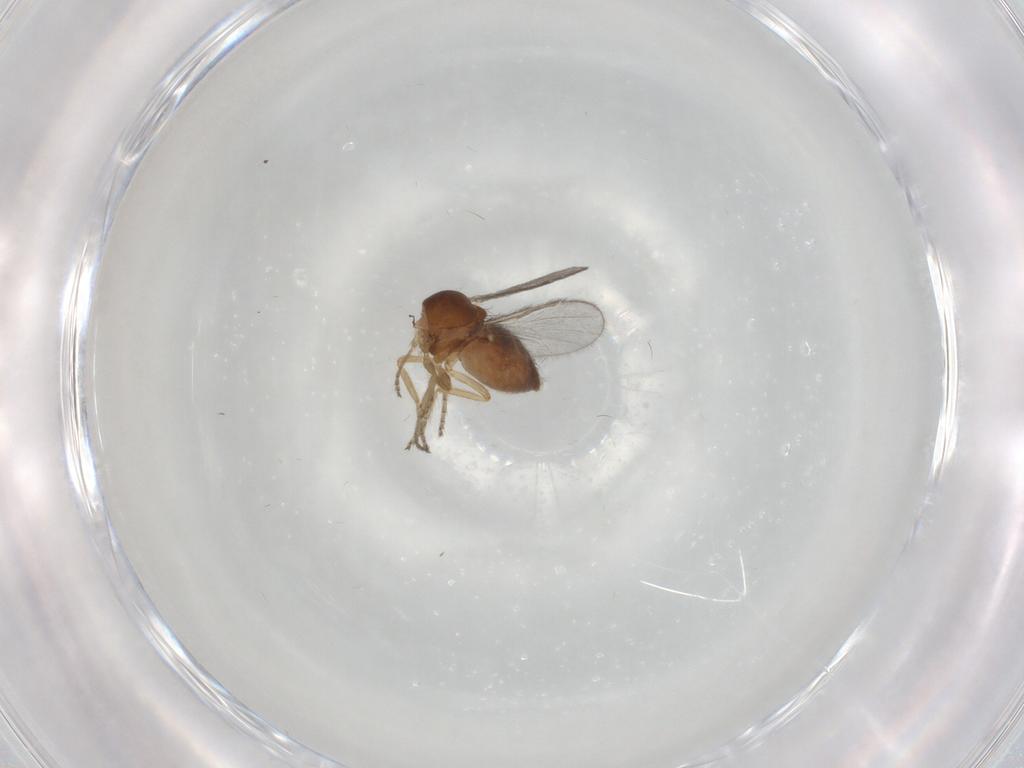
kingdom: Animalia
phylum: Arthropoda
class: Insecta
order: Diptera
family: Ceratopogonidae
